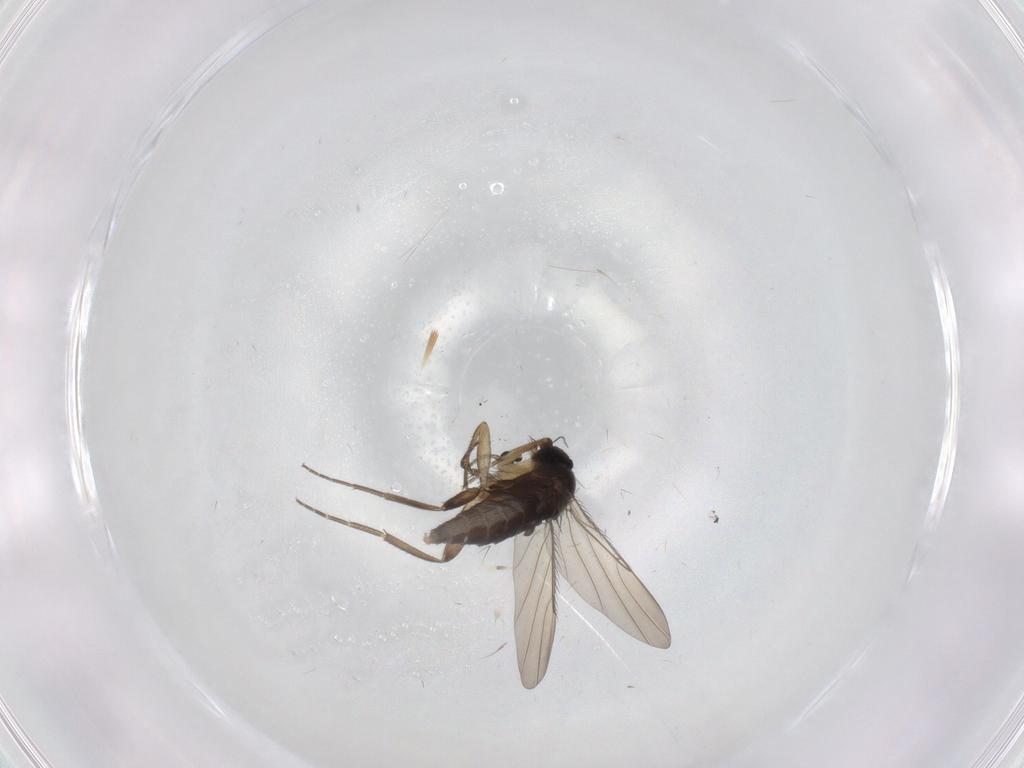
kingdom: Animalia
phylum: Arthropoda
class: Insecta
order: Diptera
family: Phoridae
